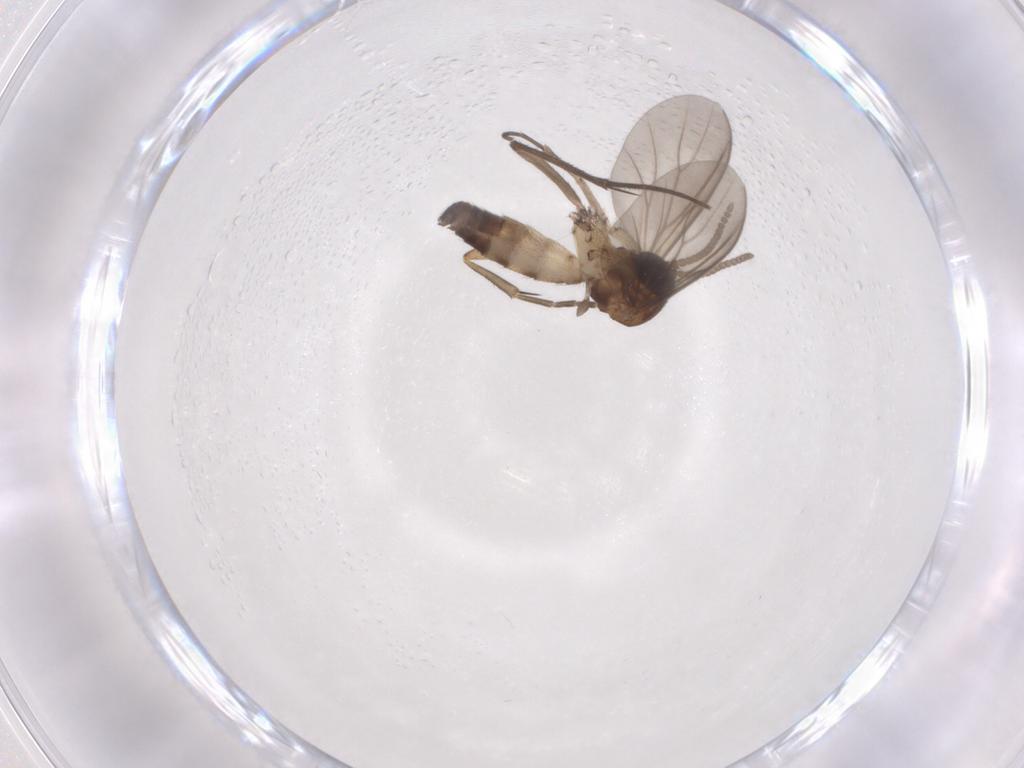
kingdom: Animalia
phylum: Arthropoda
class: Insecta
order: Diptera
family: Mycetophilidae
